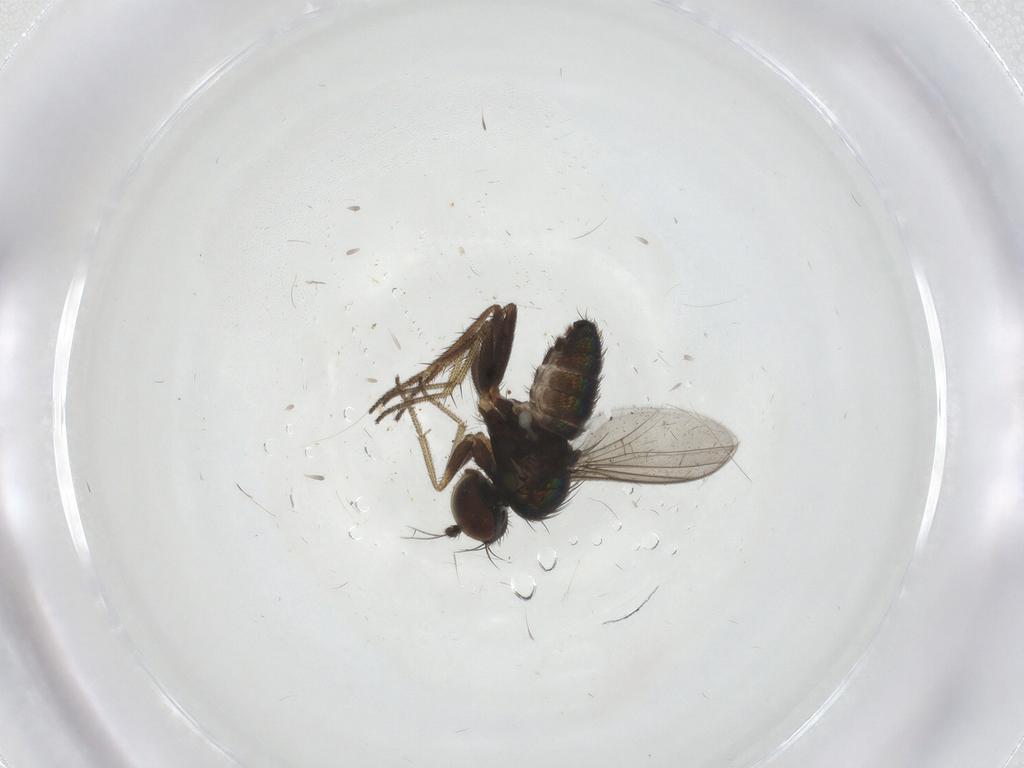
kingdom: Animalia
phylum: Arthropoda
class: Insecta
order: Diptera
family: Dolichopodidae
